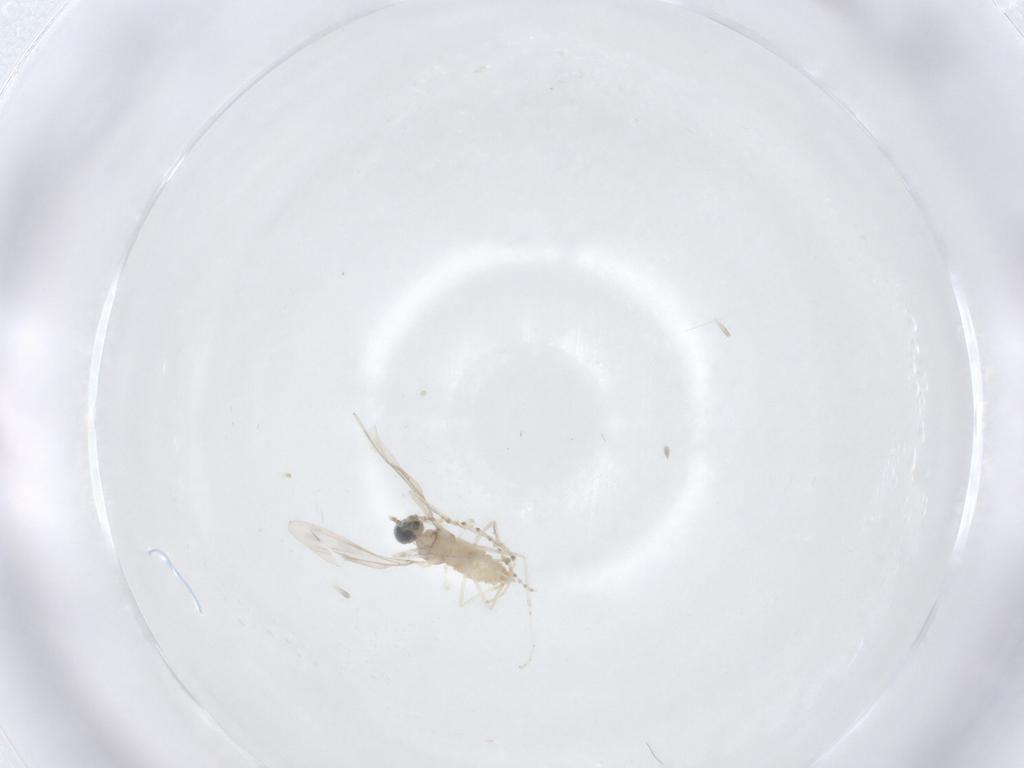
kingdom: Animalia
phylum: Arthropoda
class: Insecta
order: Diptera
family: Cecidomyiidae
